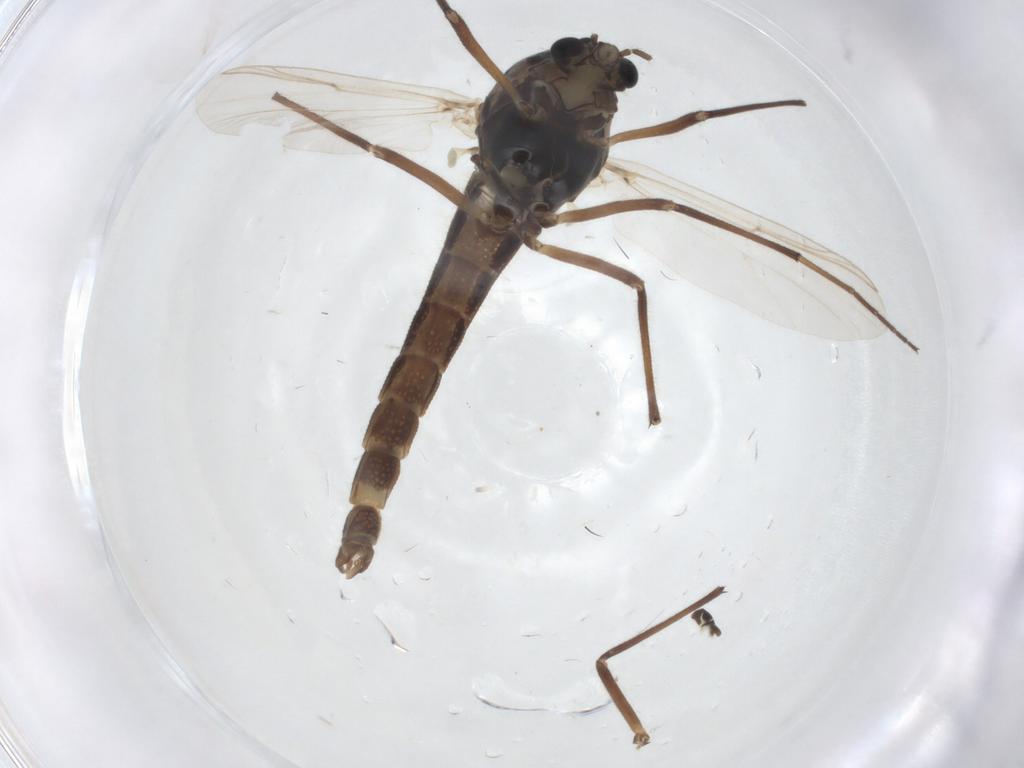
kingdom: Animalia
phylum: Arthropoda
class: Insecta
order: Diptera
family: Chironomidae
